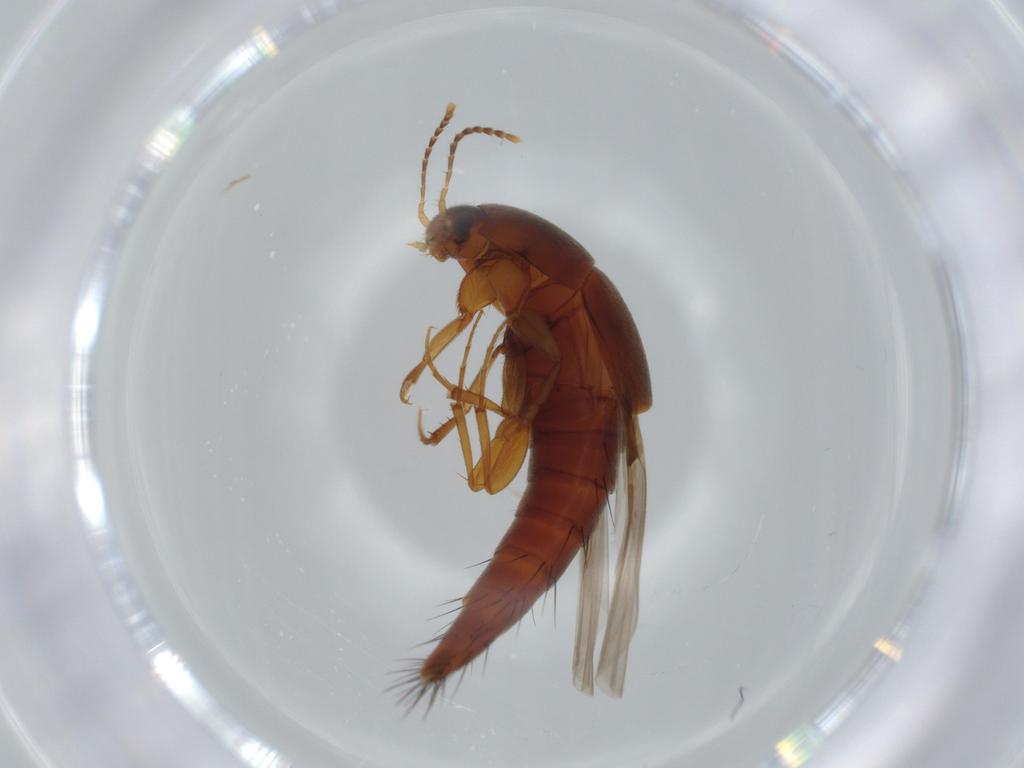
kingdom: Animalia
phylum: Arthropoda
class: Insecta
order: Coleoptera
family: Staphylinidae
